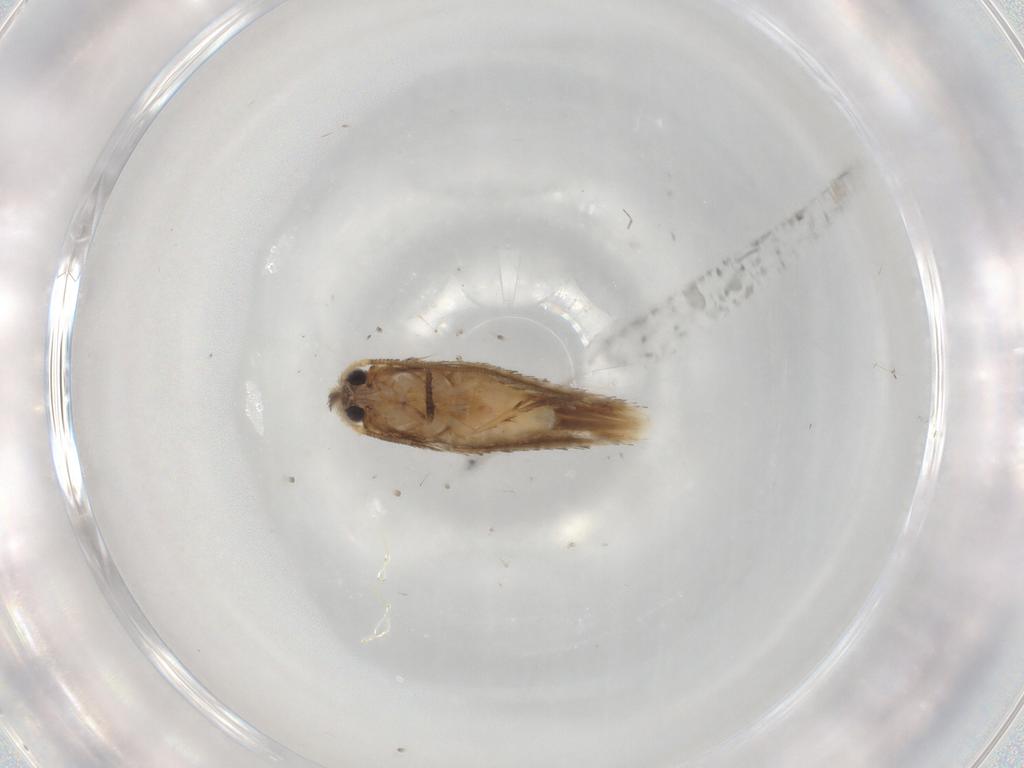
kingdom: Animalia
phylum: Arthropoda
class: Insecta
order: Lepidoptera
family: Nepticulidae
